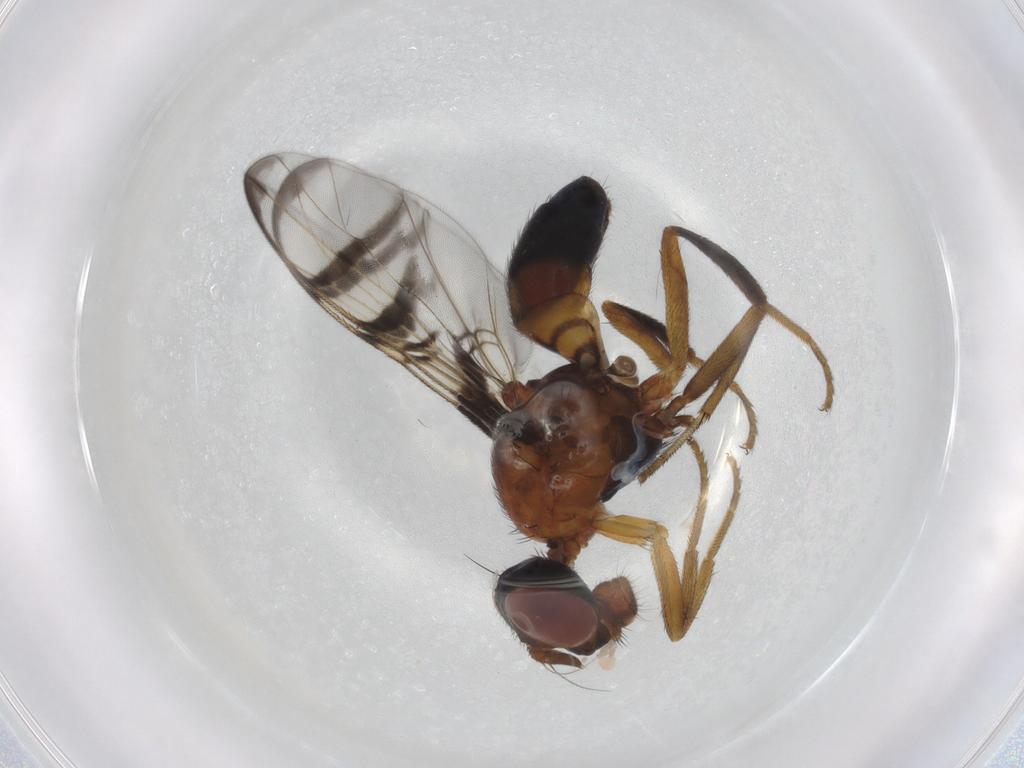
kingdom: Animalia
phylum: Arthropoda
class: Insecta
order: Diptera
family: Platystomatidae
